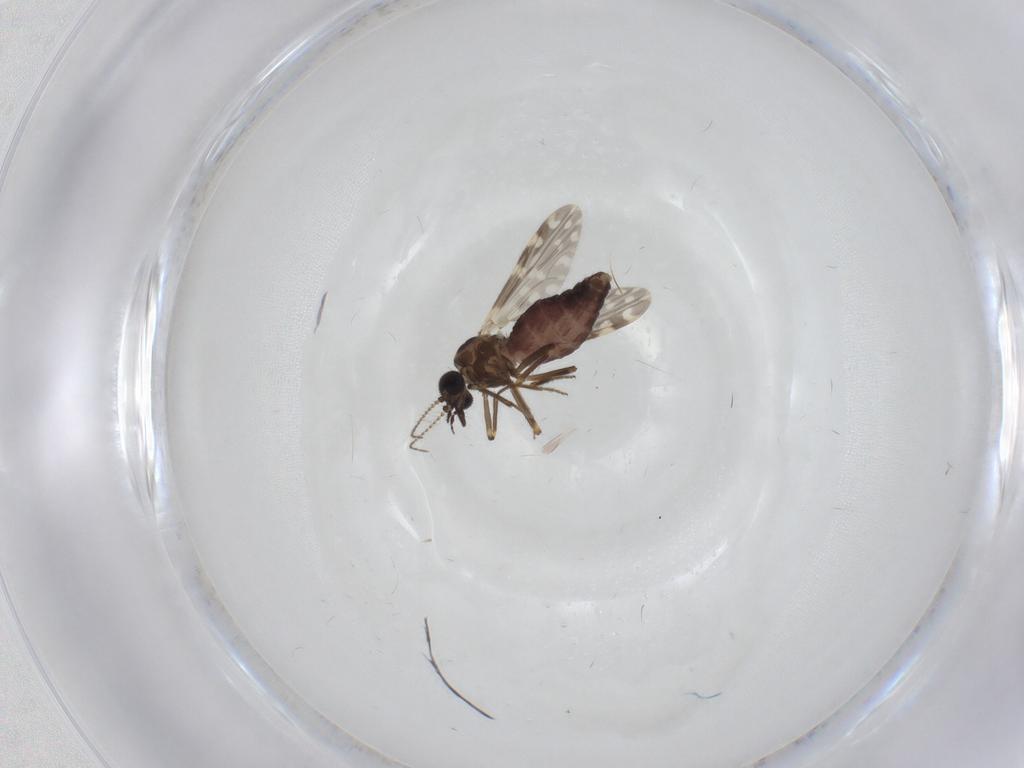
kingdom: Animalia
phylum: Arthropoda
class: Insecta
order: Diptera
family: Ceratopogonidae
